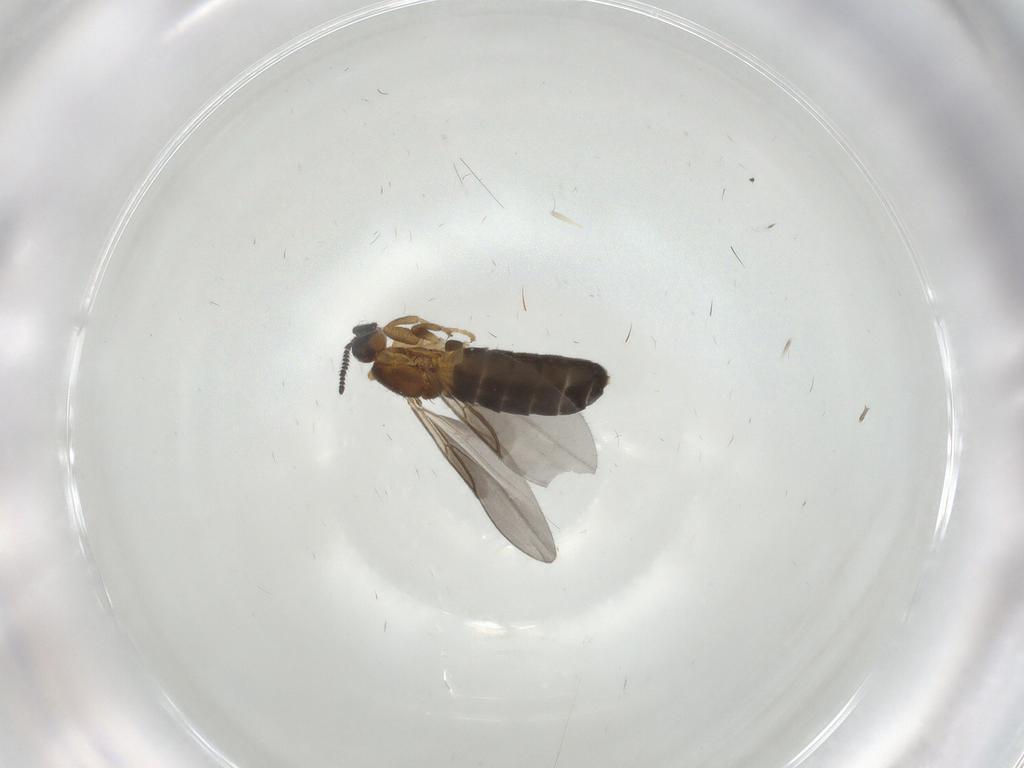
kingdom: Animalia
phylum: Arthropoda
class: Insecta
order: Diptera
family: Scatopsidae
